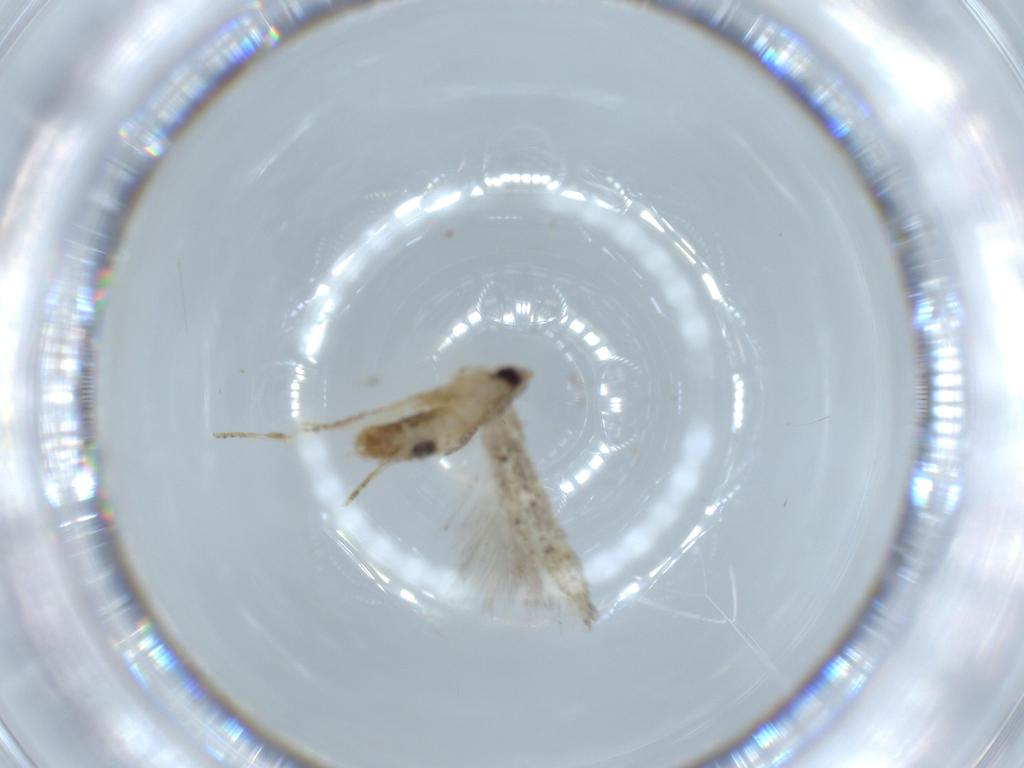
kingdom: Animalia
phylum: Arthropoda
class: Insecta
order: Lepidoptera
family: Cosmopterigidae
